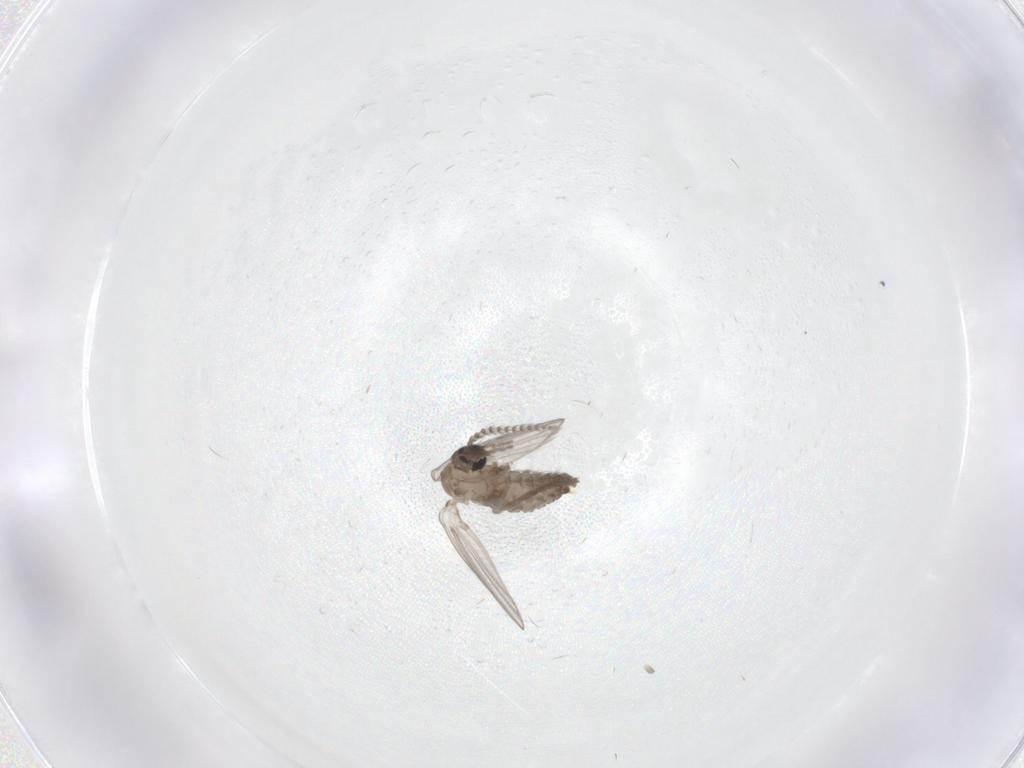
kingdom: Animalia
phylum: Arthropoda
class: Insecta
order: Diptera
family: Psychodidae
